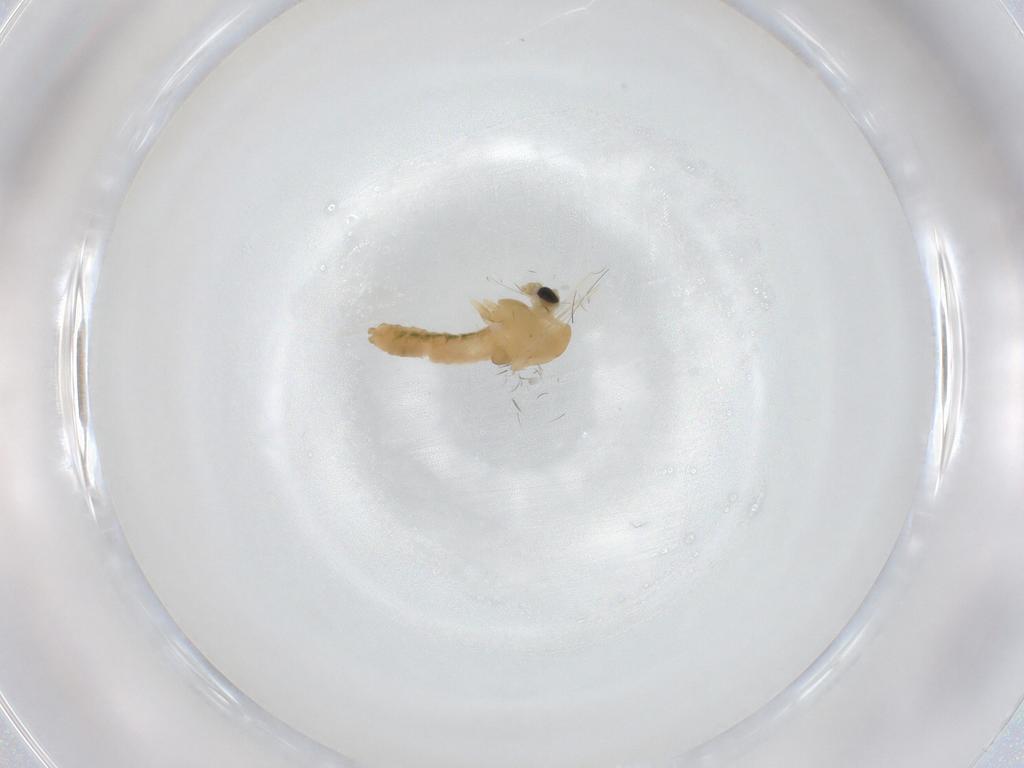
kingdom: Animalia
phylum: Arthropoda
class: Insecta
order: Diptera
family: Chironomidae
